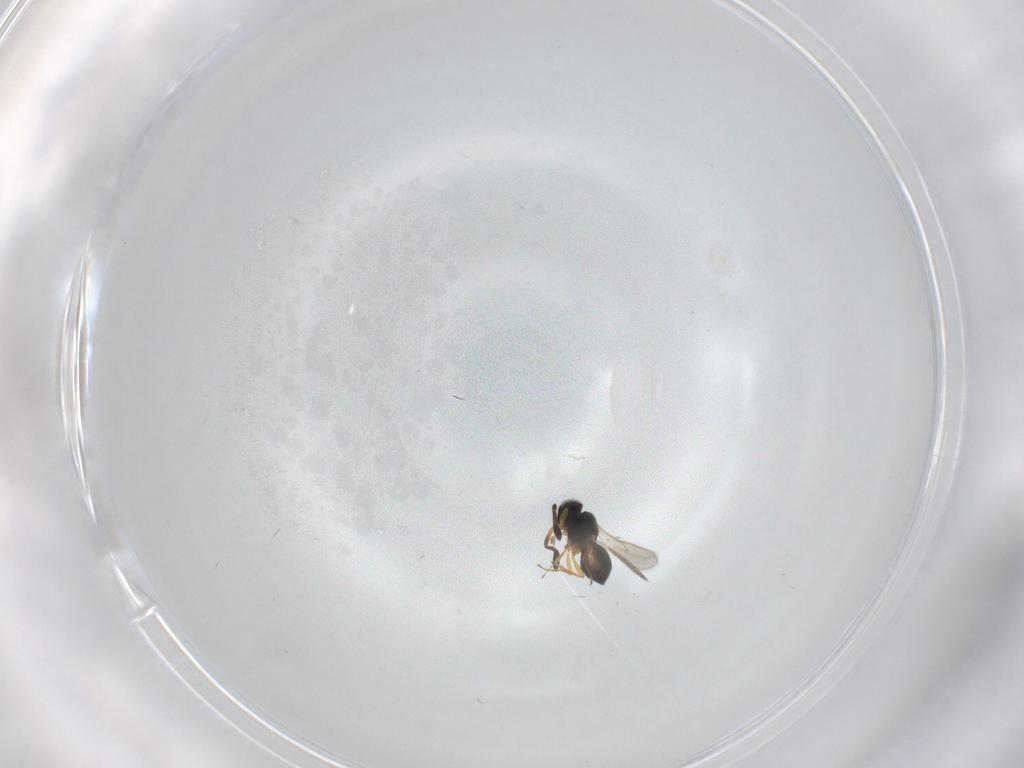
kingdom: Animalia
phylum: Arthropoda
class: Insecta
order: Hymenoptera
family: Scelionidae
